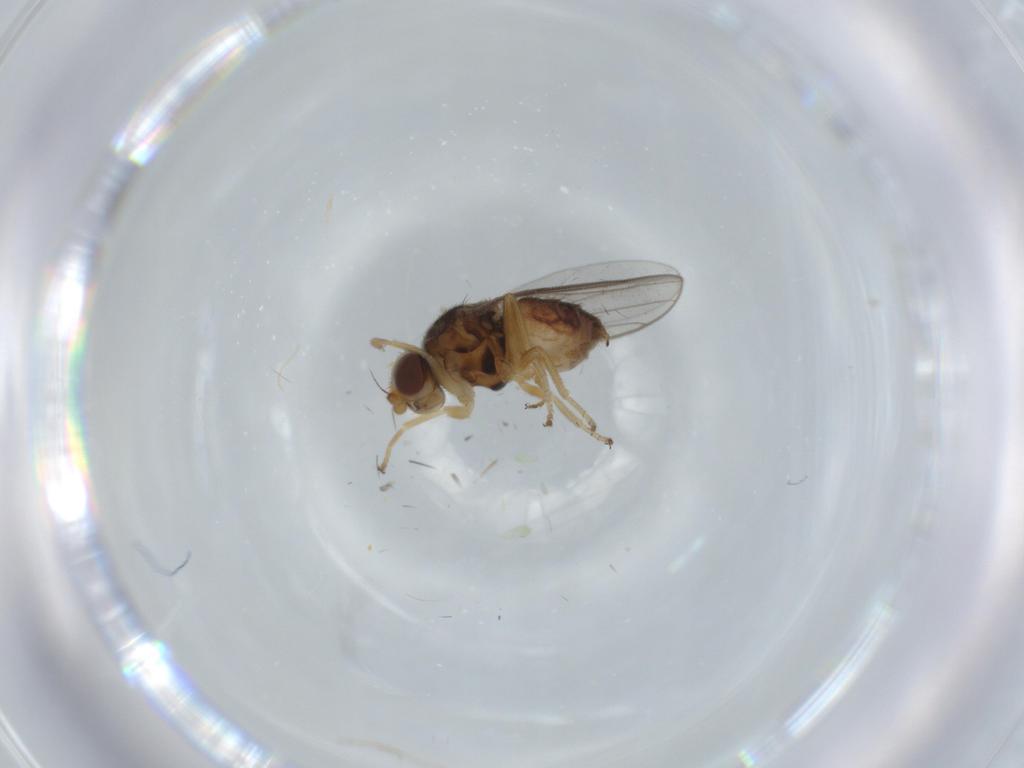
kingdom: Animalia
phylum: Arthropoda
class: Insecta
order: Diptera
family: Chloropidae
